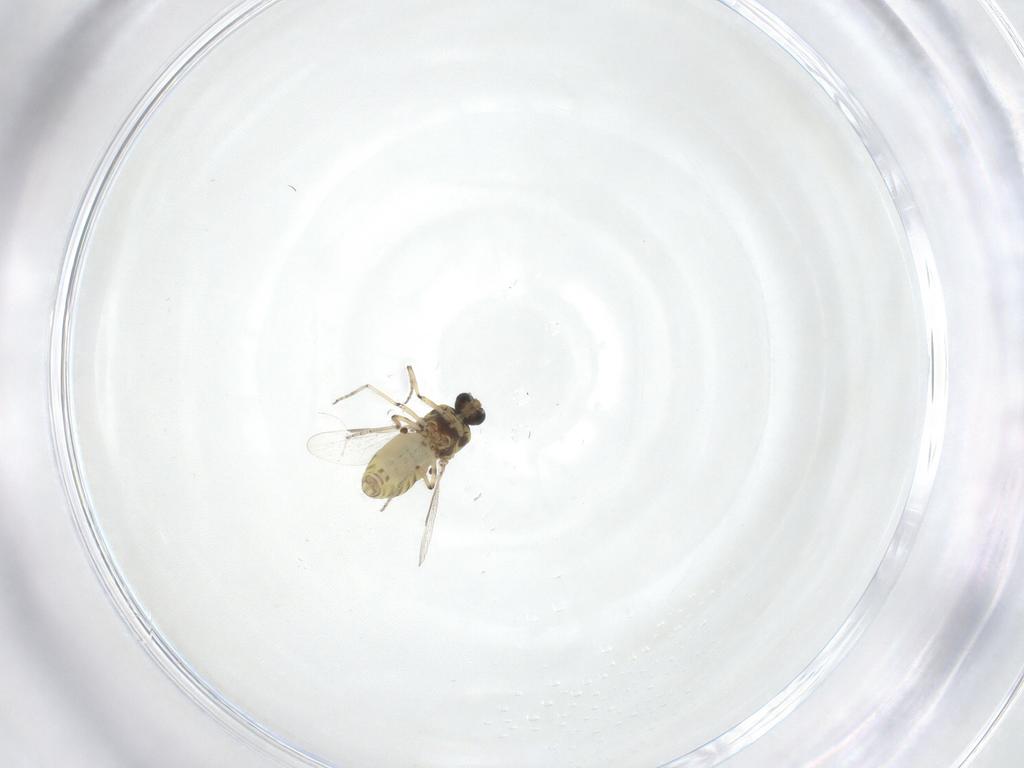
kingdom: Animalia
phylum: Arthropoda
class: Insecta
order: Diptera
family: Ceratopogonidae
